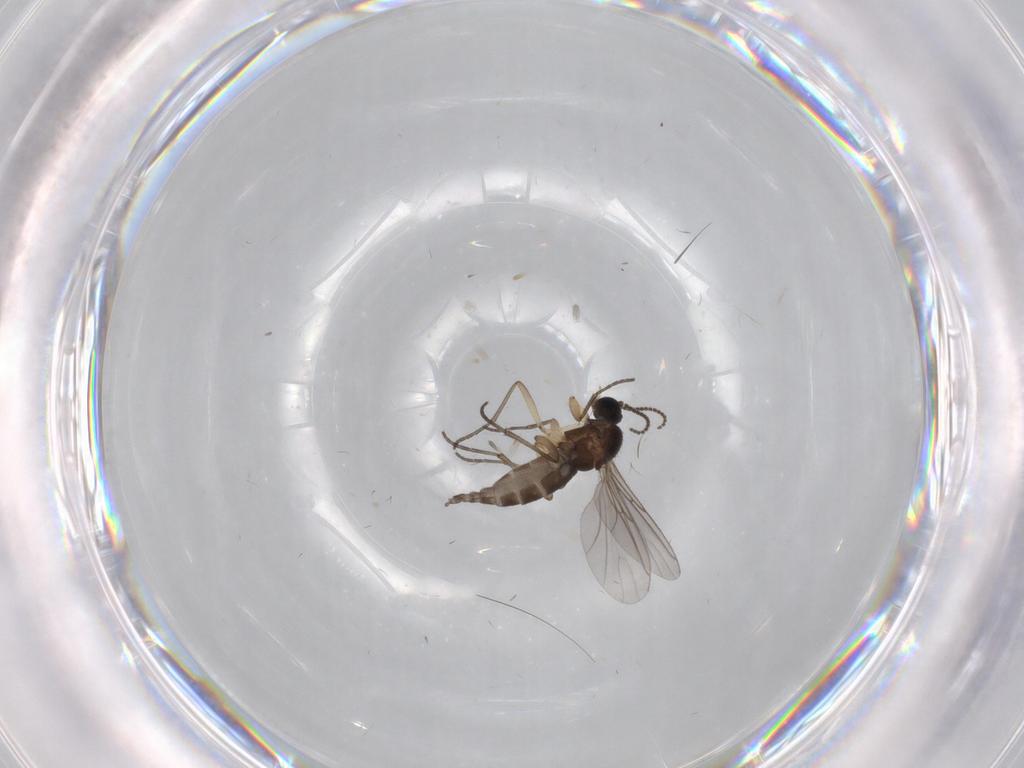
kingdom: Animalia
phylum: Arthropoda
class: Insecta
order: Diptera
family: Sciaridae
